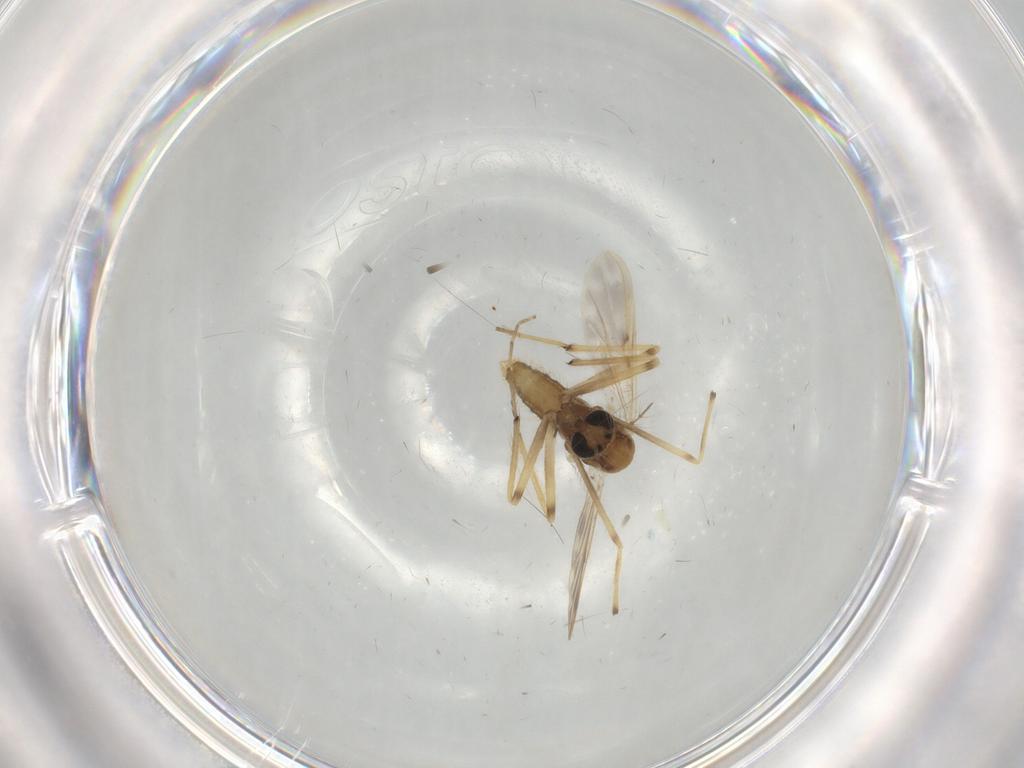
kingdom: Animalia
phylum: Arthropoda
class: Insecta
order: Diptera
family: Chironomidae
